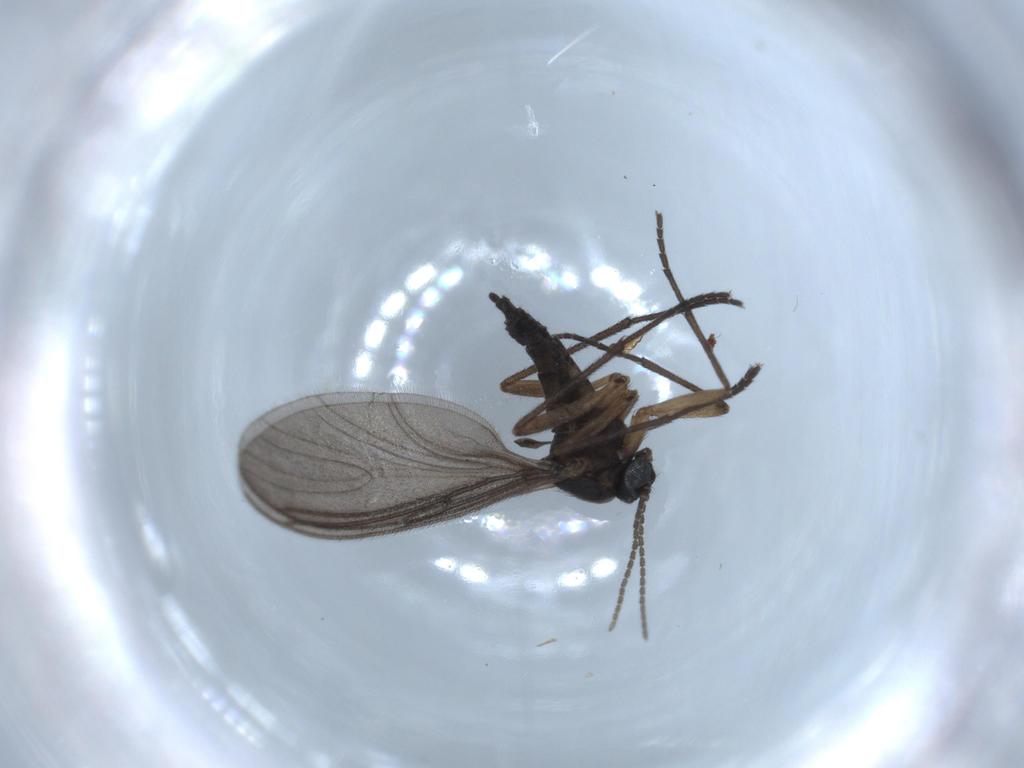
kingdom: Animalia
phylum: Arthropoda
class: Insecta
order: Diptera
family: Sciaridae
